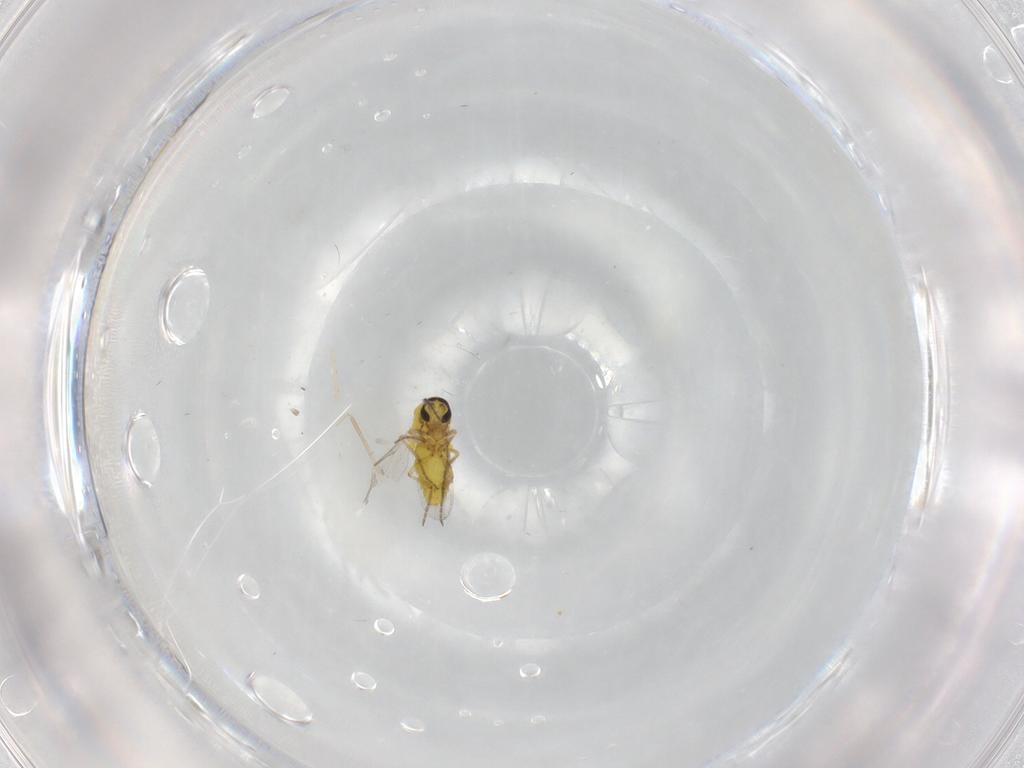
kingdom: Animalia
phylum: Arthropoda
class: Insecta
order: Diptera
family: Ceratopogonidae
